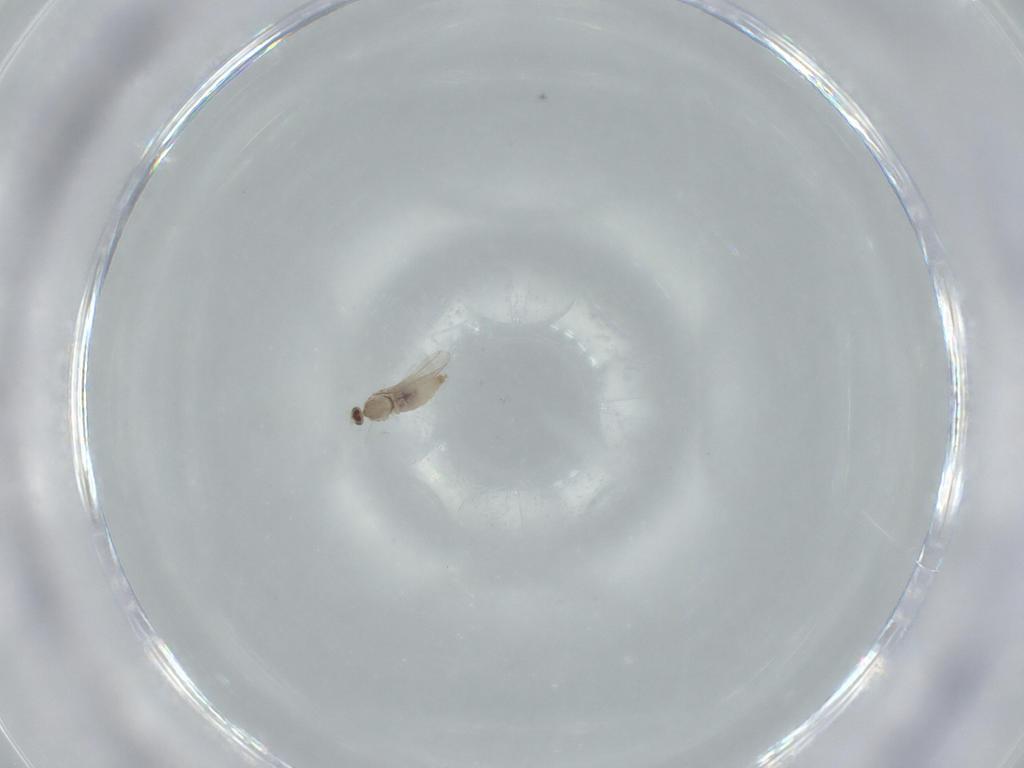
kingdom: Animalia
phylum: Arthropoda
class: Insecta
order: Diptera
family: Cecidomyiidae
